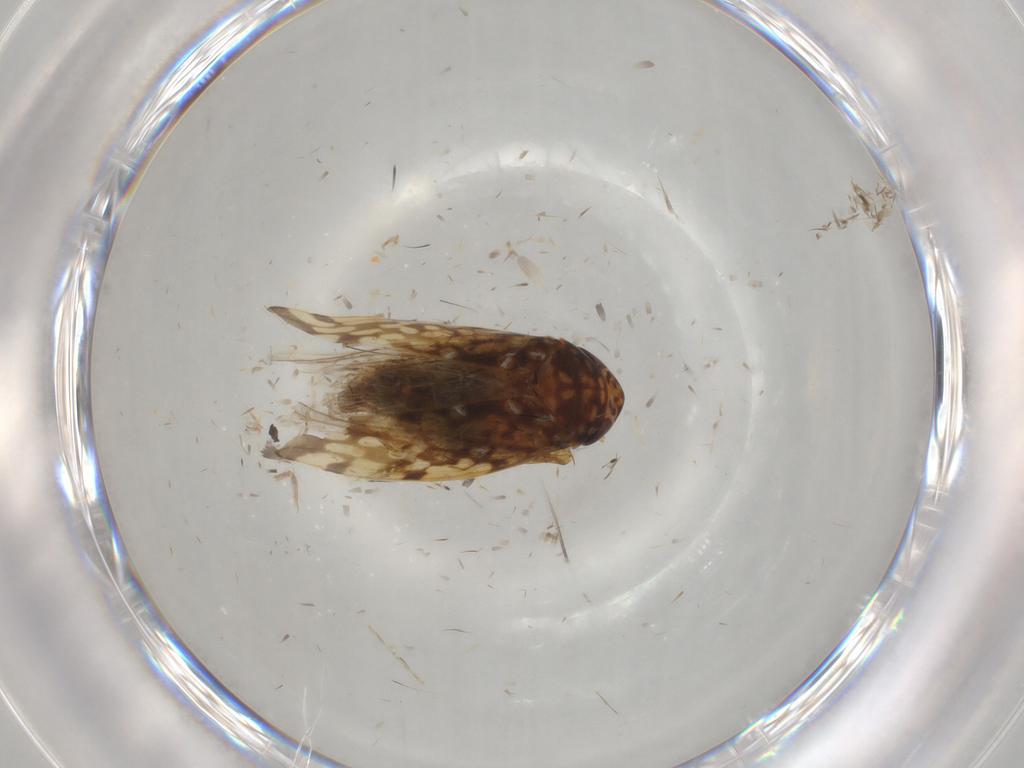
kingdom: Animalia
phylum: Arthropoda
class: Insecta
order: Hemiptera
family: Cicadellidae
